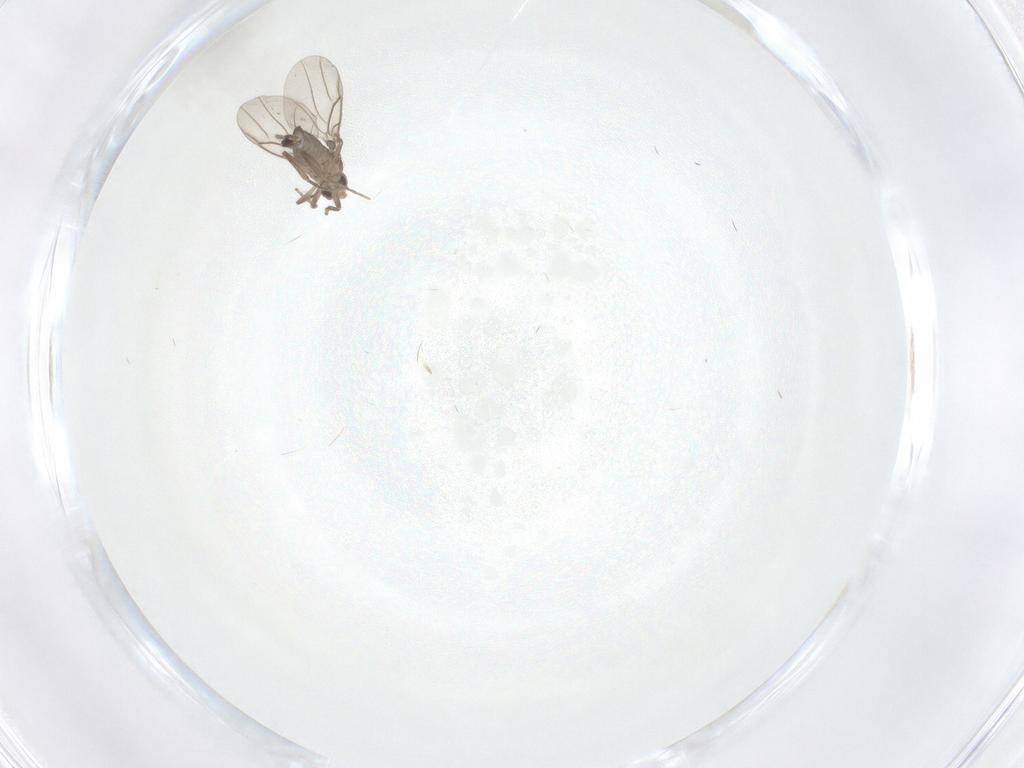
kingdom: Animalia
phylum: Arthropoda
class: Insecta
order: Diptera
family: Phoridae
